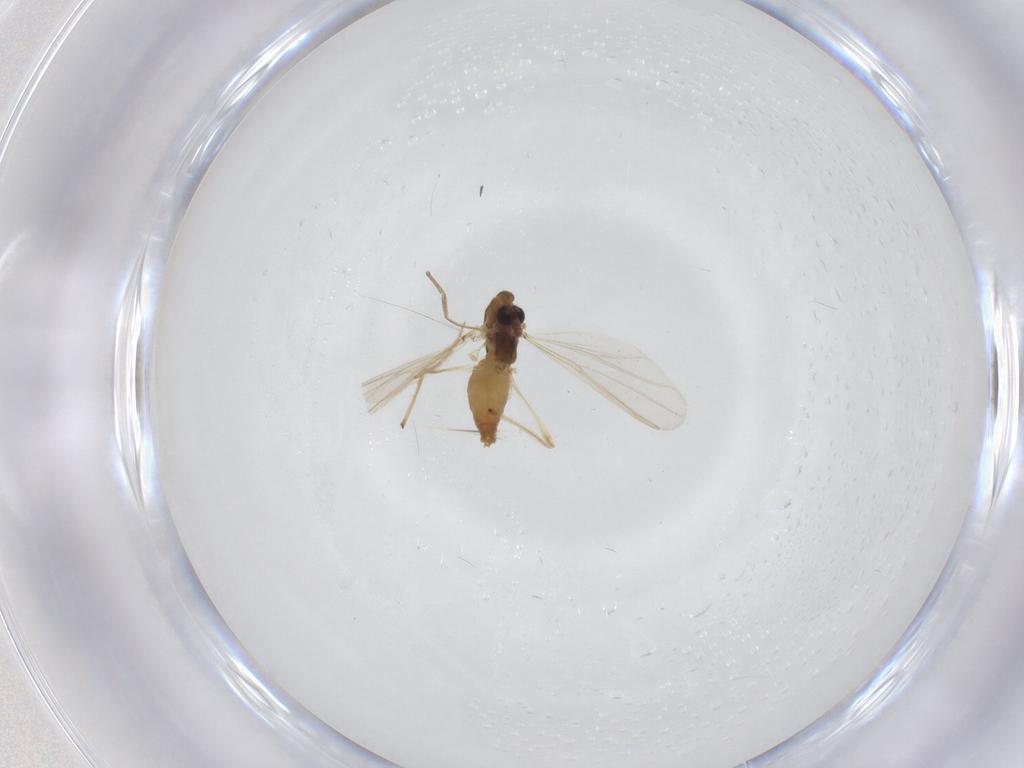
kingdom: Animalia
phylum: Arthropoda
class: Insecta
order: Diptera
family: Chironomidae
